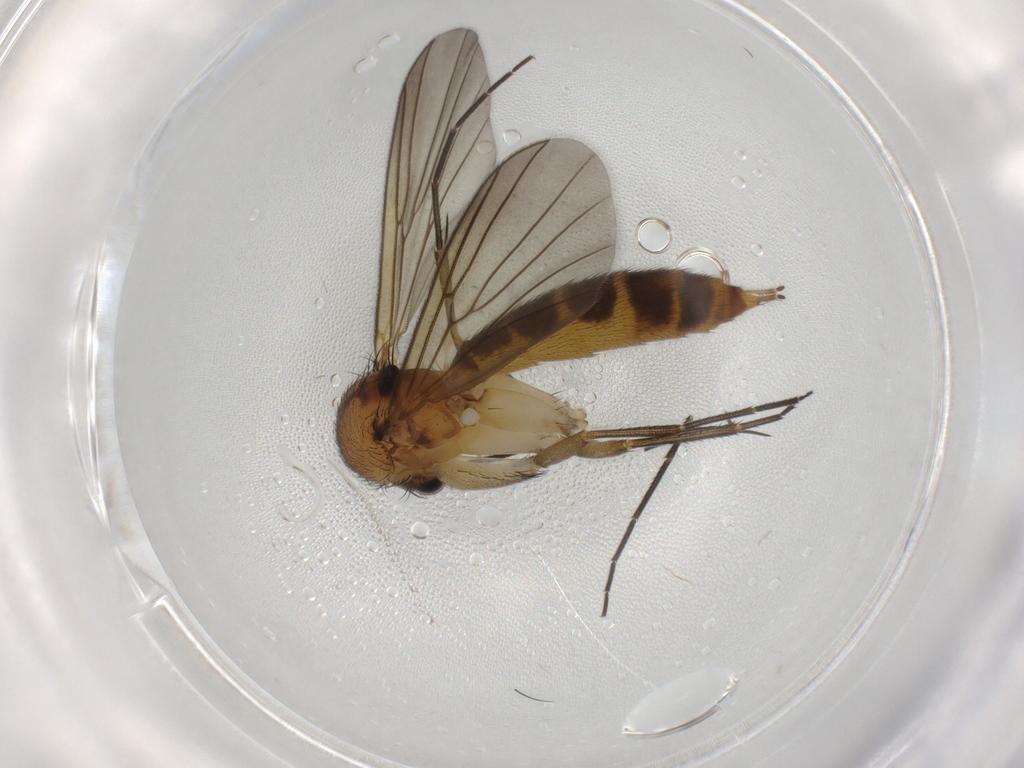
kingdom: Animalia
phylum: Arthropoda
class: Insecta
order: Diptera
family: Mycetophilidae
